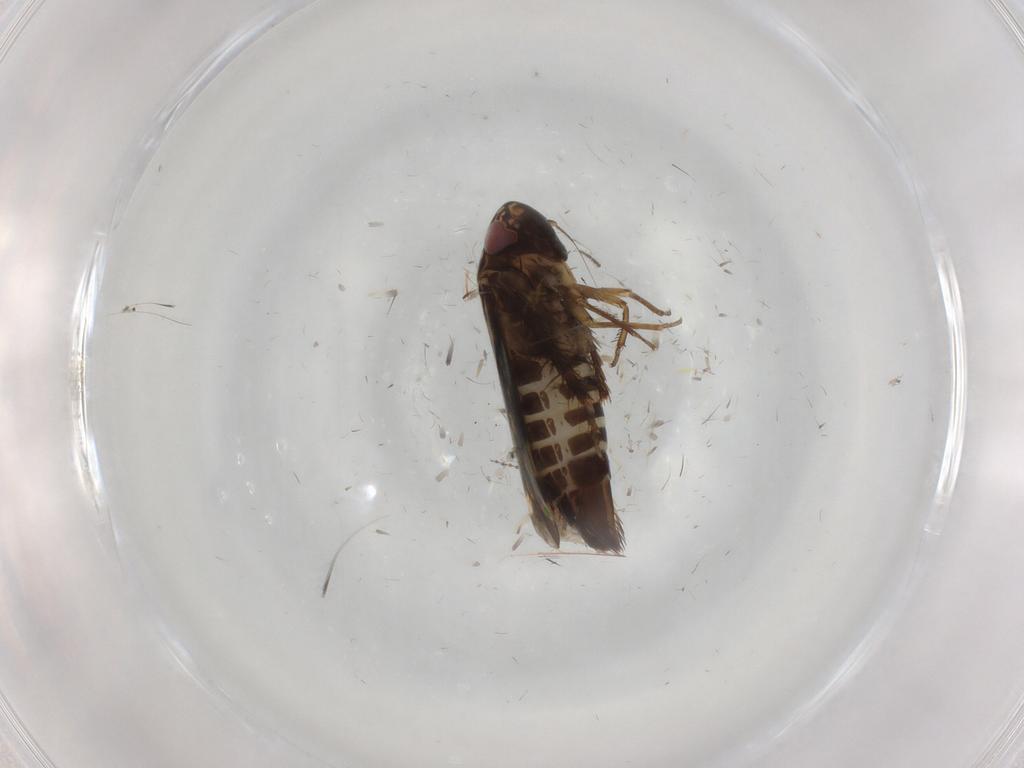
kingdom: Animalia
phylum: Arthropoda
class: Insecta
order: Hemiptera
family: Cicadellidae
